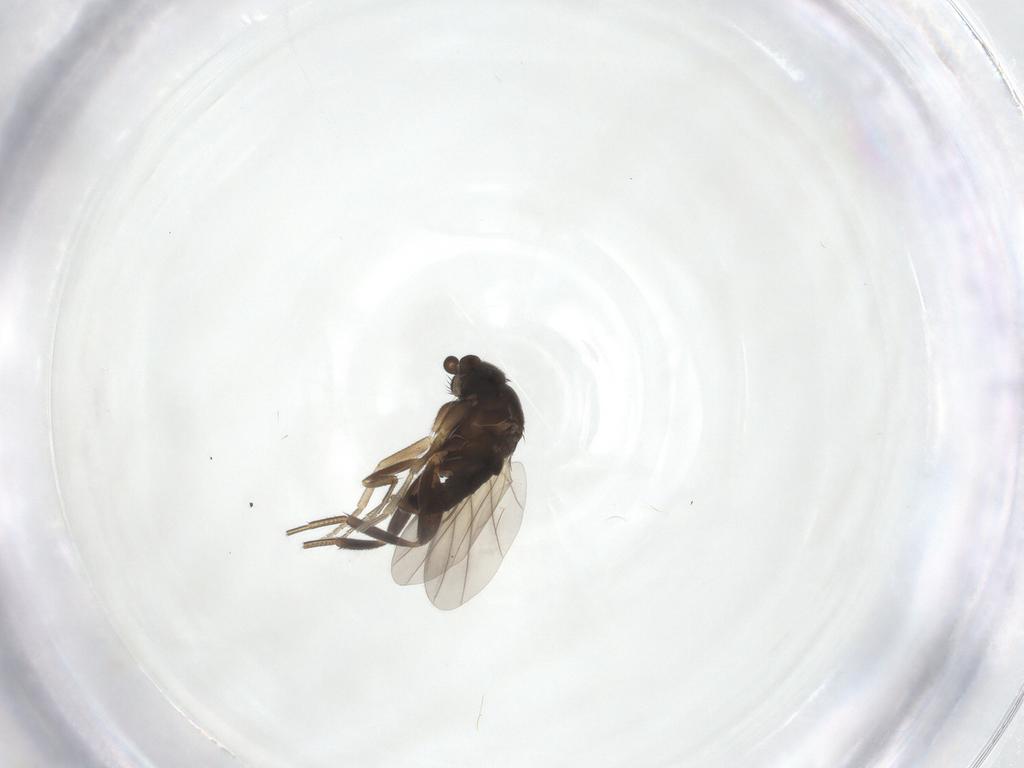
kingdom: Animalia
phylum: Arthropoda
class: Insecta
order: Diptera
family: Phoridae
